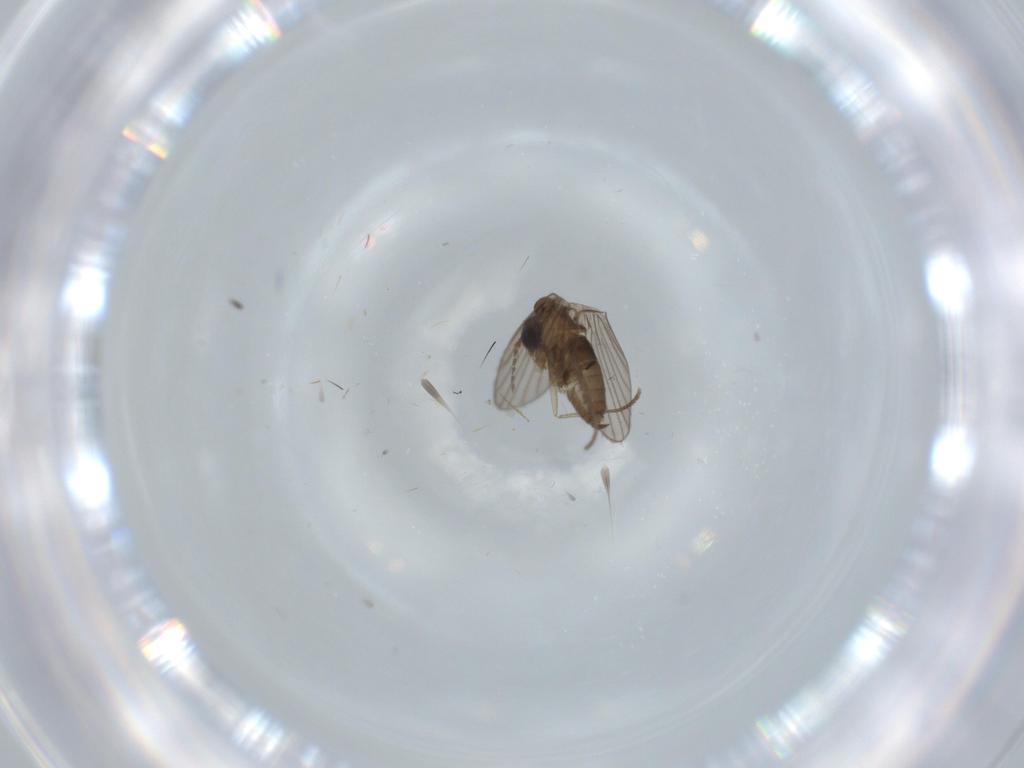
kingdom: Animalia
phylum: Arthropoda
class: Insecta
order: Diptera
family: Psychodidae
